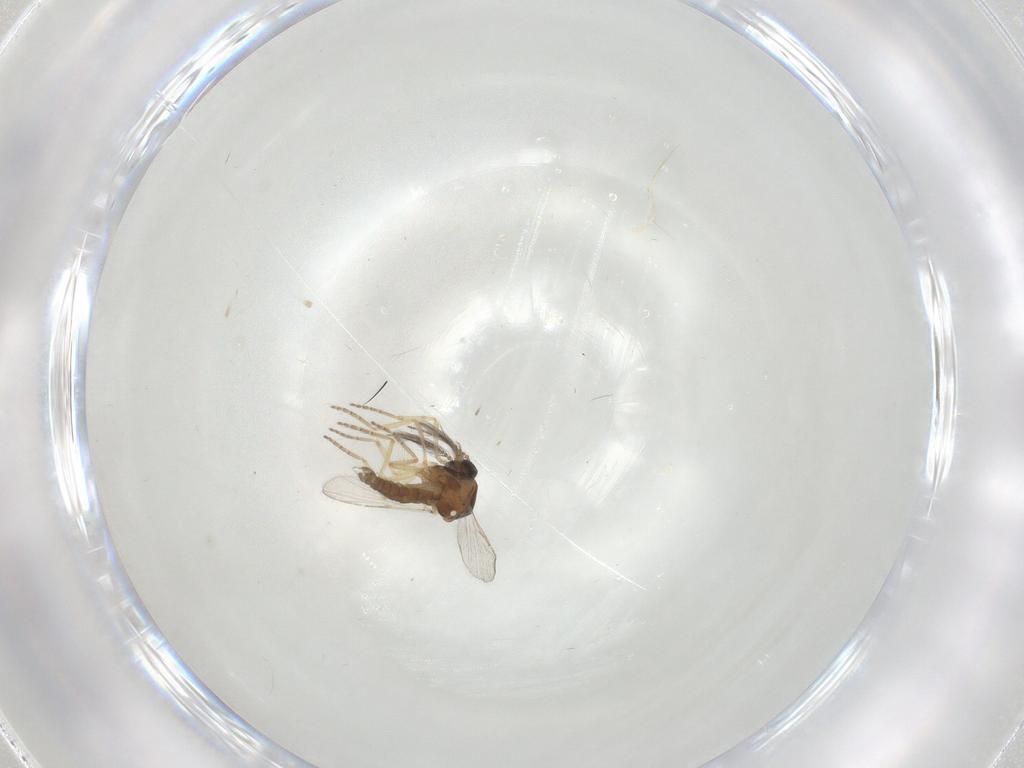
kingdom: Animalia
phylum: Arthropoda
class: Insecta
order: Diptera
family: Ceratopogonidae
